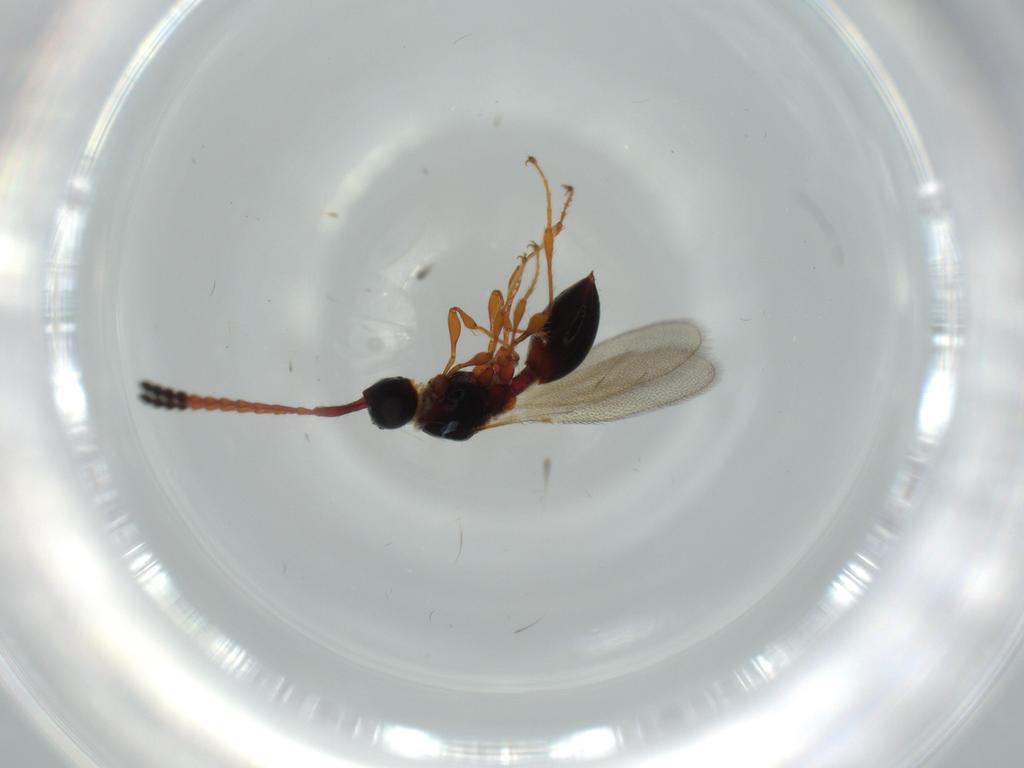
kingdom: Animalia
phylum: Arthropoda
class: Insecta
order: Hymenoptera
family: Diapriidae
